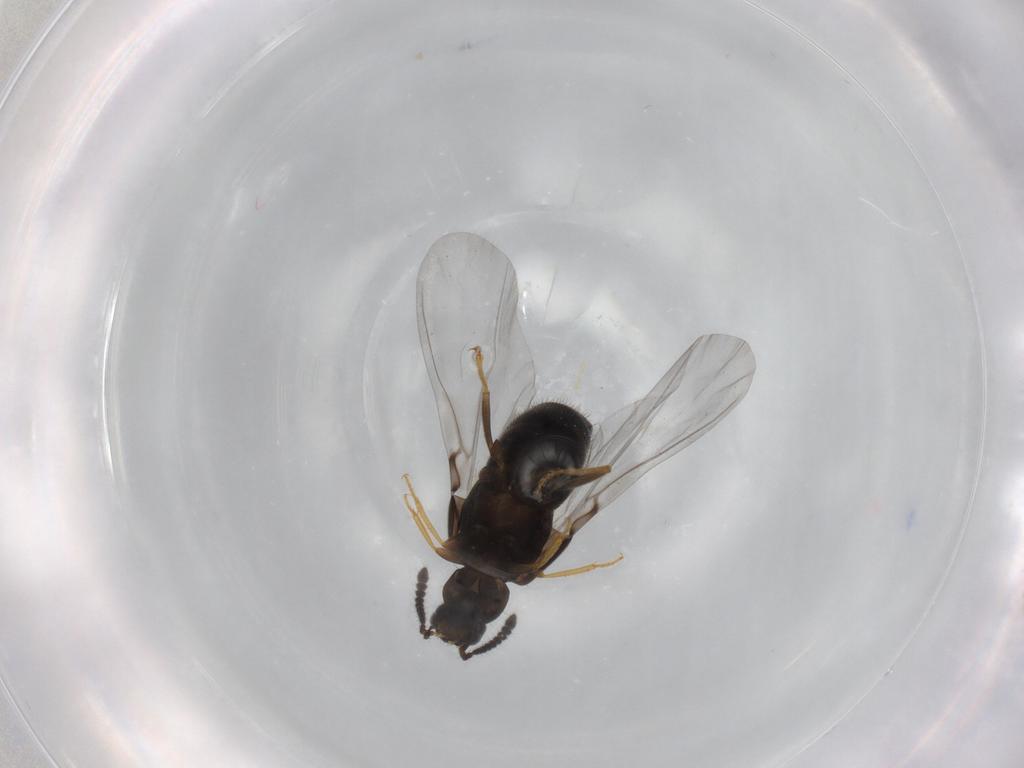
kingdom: Animalia
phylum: Arthropoda
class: Insecta
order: Coleoptera
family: Staphylinidae
